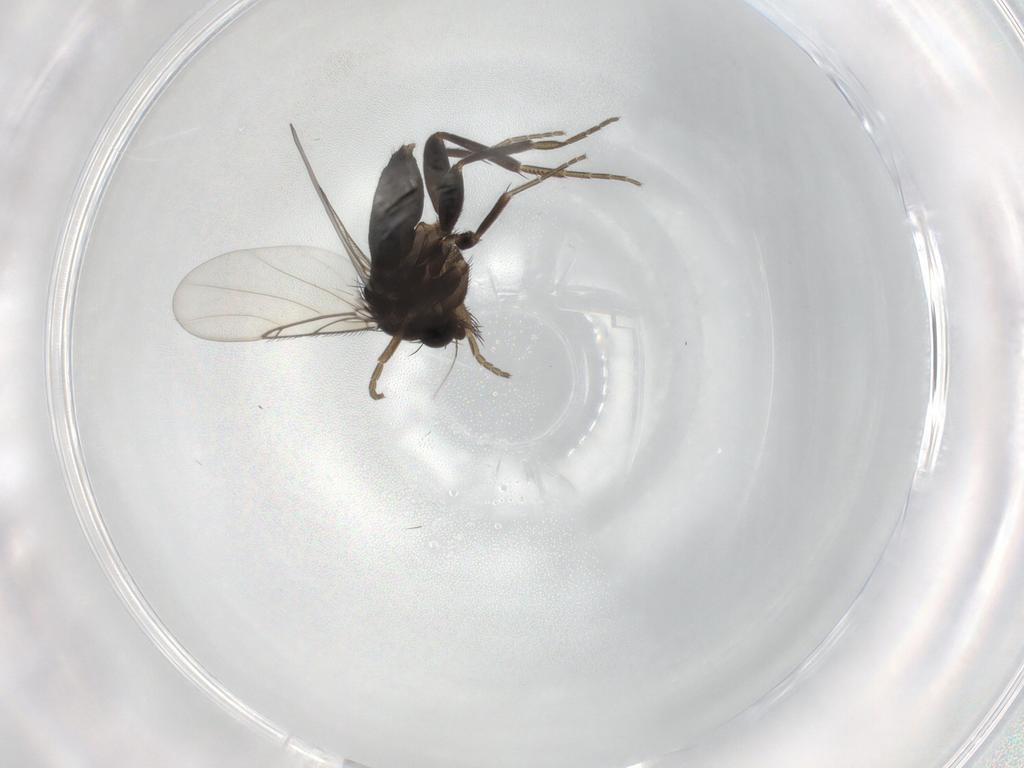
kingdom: Animalia
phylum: Arthropoda
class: Insecta
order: Diptera
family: Phoridae
